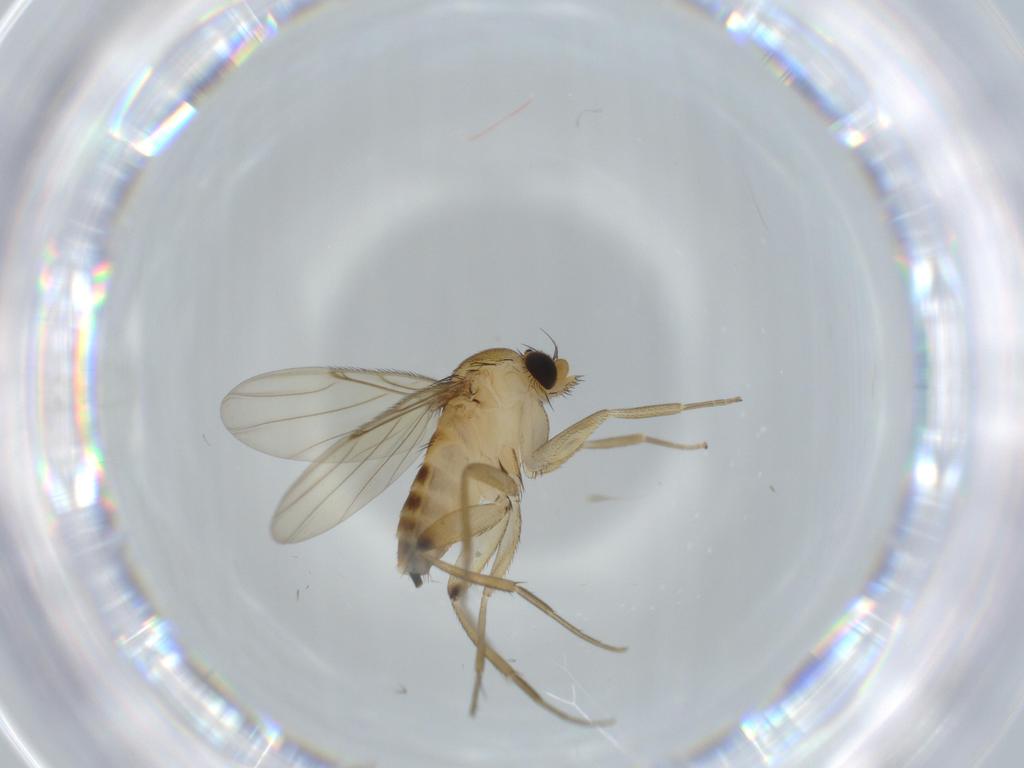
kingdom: Animalia
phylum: Arthropoda
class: Insecta
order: Diptera
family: Phoridae
